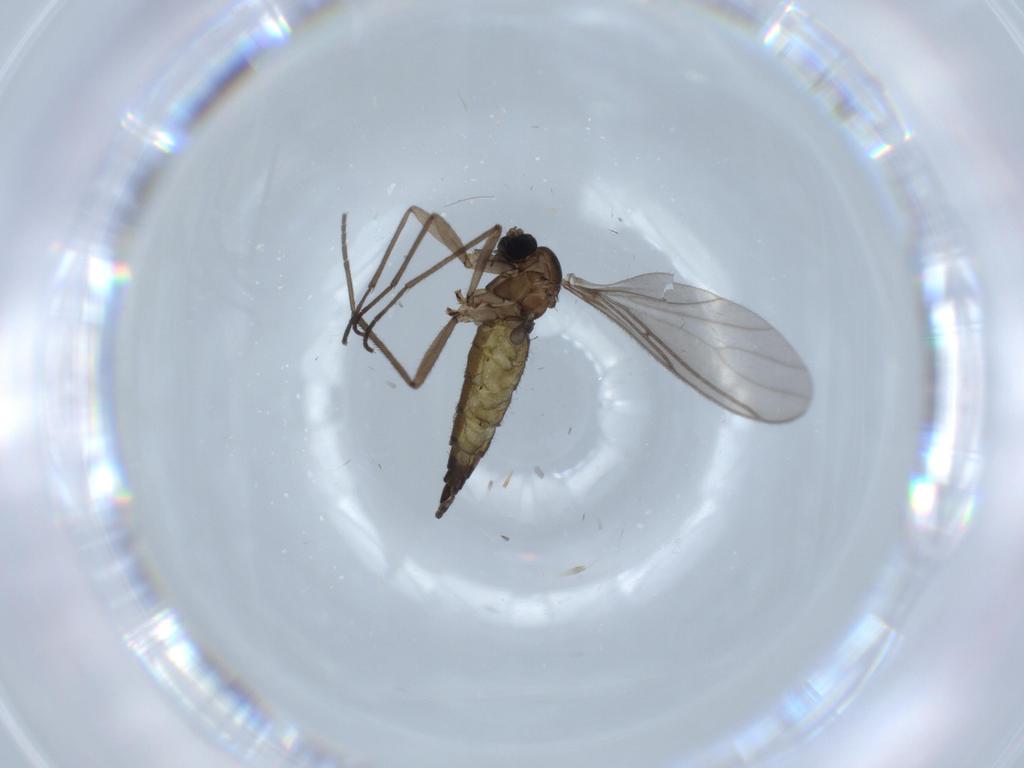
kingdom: Animalia
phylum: Arthropoda
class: Insecta
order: Diptera
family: Sciaridae
